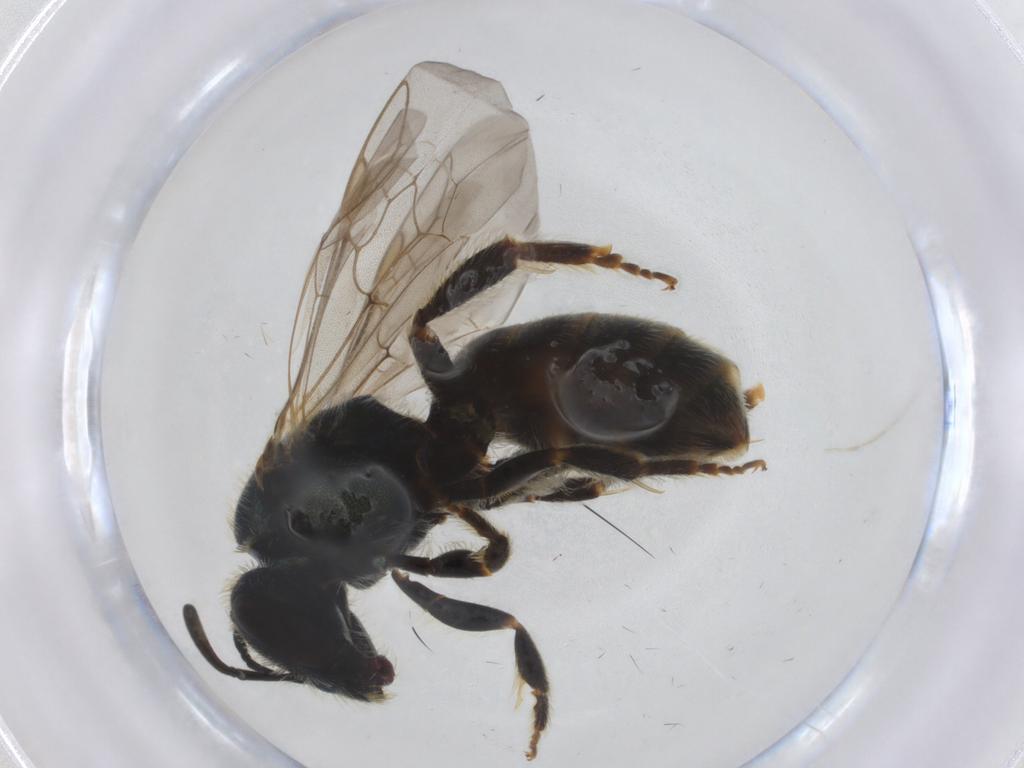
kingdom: Animalia
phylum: Arthropoda
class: Insecta
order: Hymenoptera
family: Halictidae
